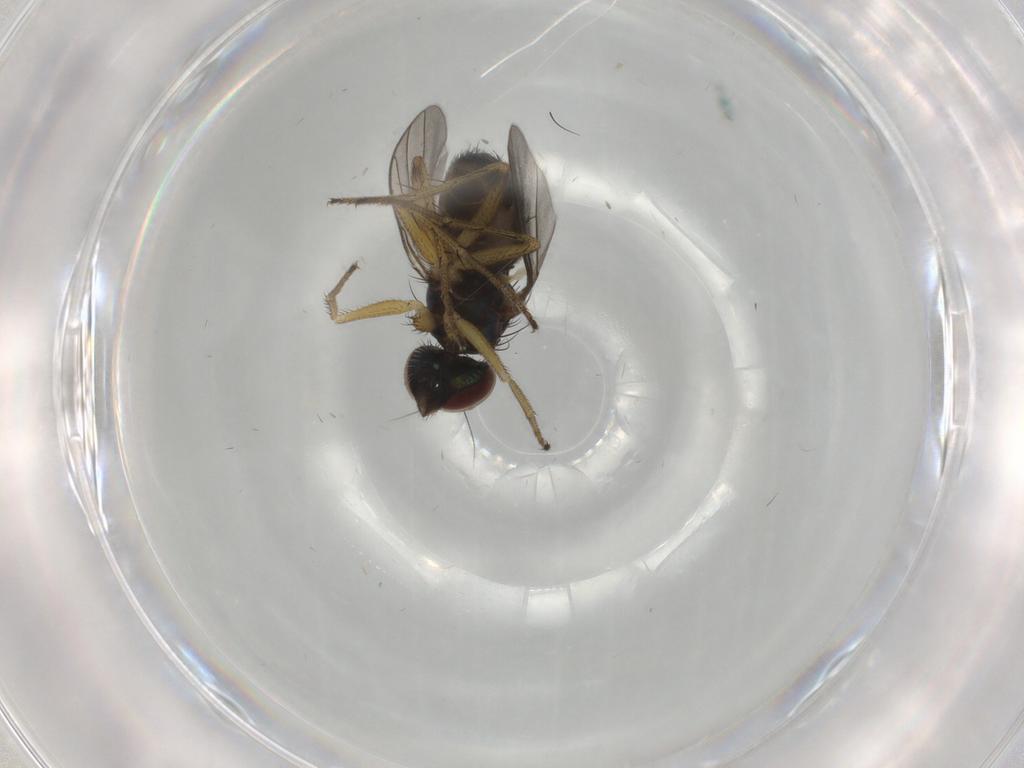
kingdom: Animalia
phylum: Arthropoda
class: Insecta
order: Diptera
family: Dolichopodidae
